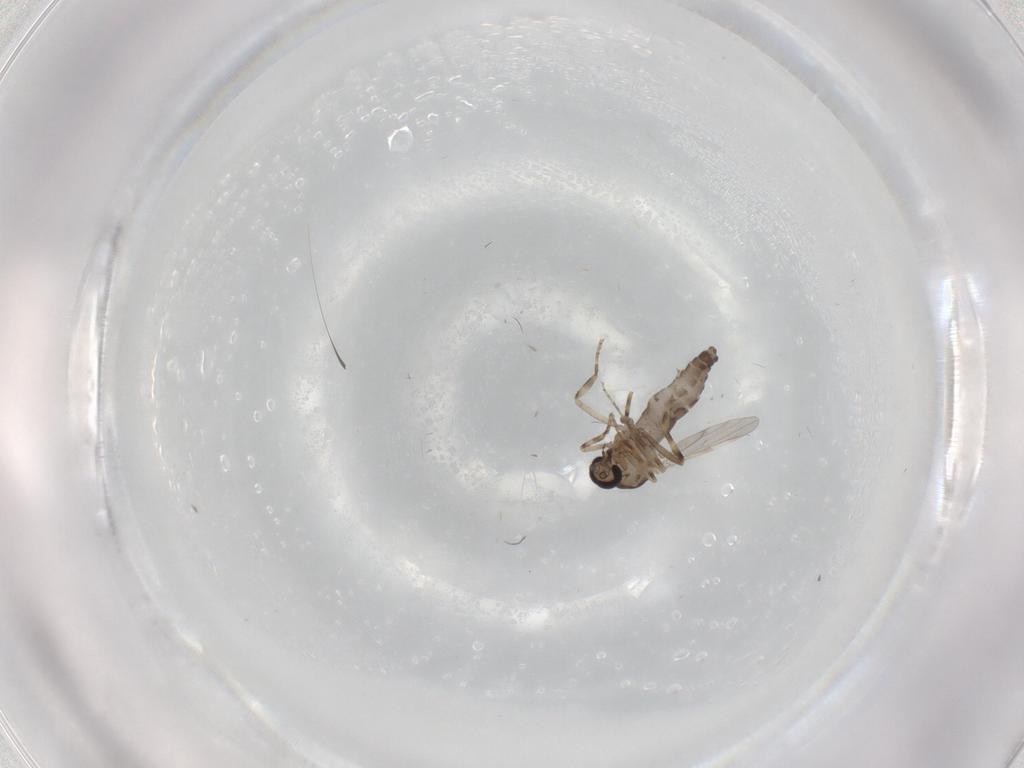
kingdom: Animalia
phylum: Arthropoda
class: Insecta
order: Diptera
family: Ceratopogonidae
